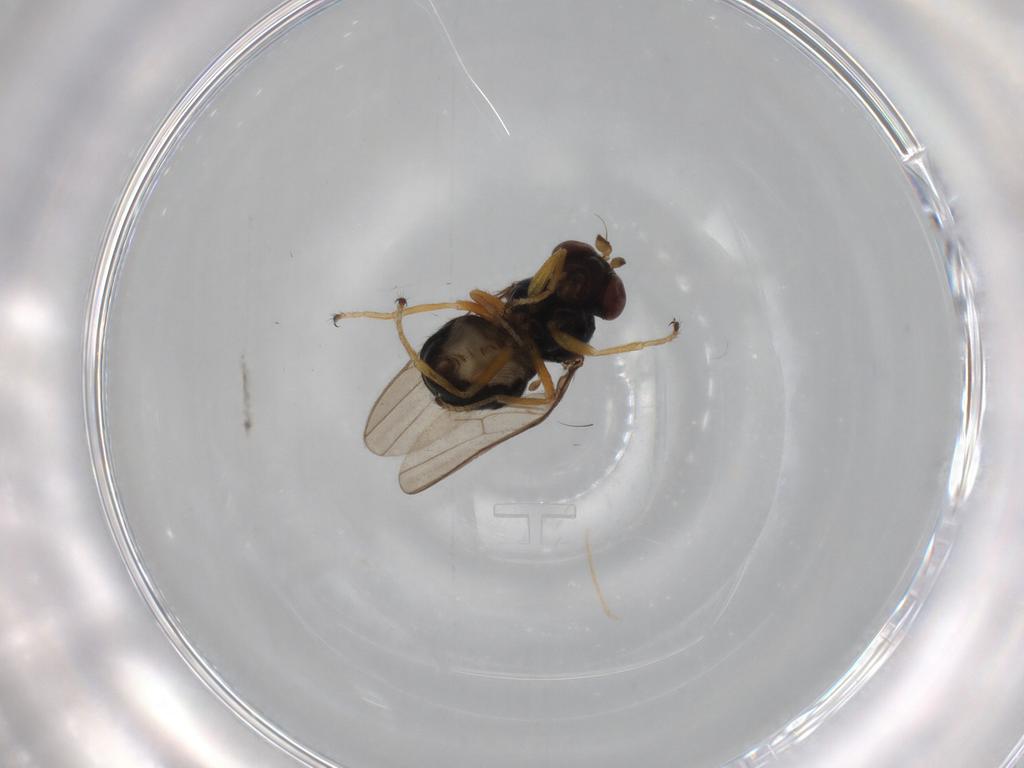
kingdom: Animalia
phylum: Arthropoda
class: Insecta
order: Diptera
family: Ephydridae
